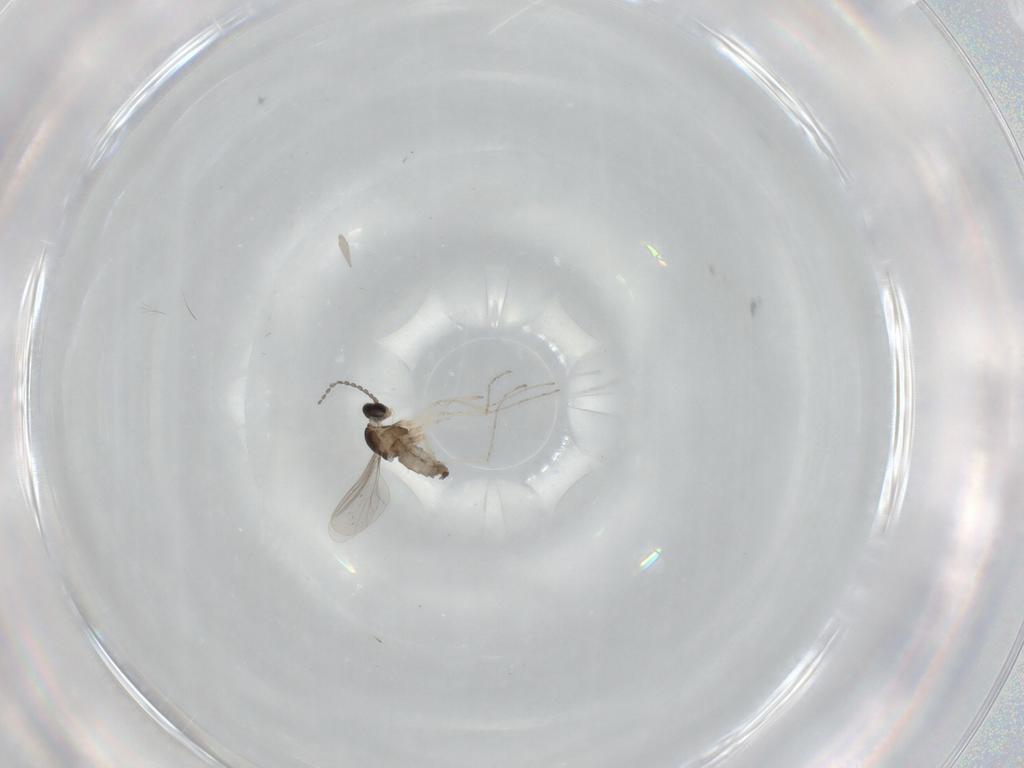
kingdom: Animalia
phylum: Arthropoda
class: Insecta
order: Diptera
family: Cecidomyiidae
